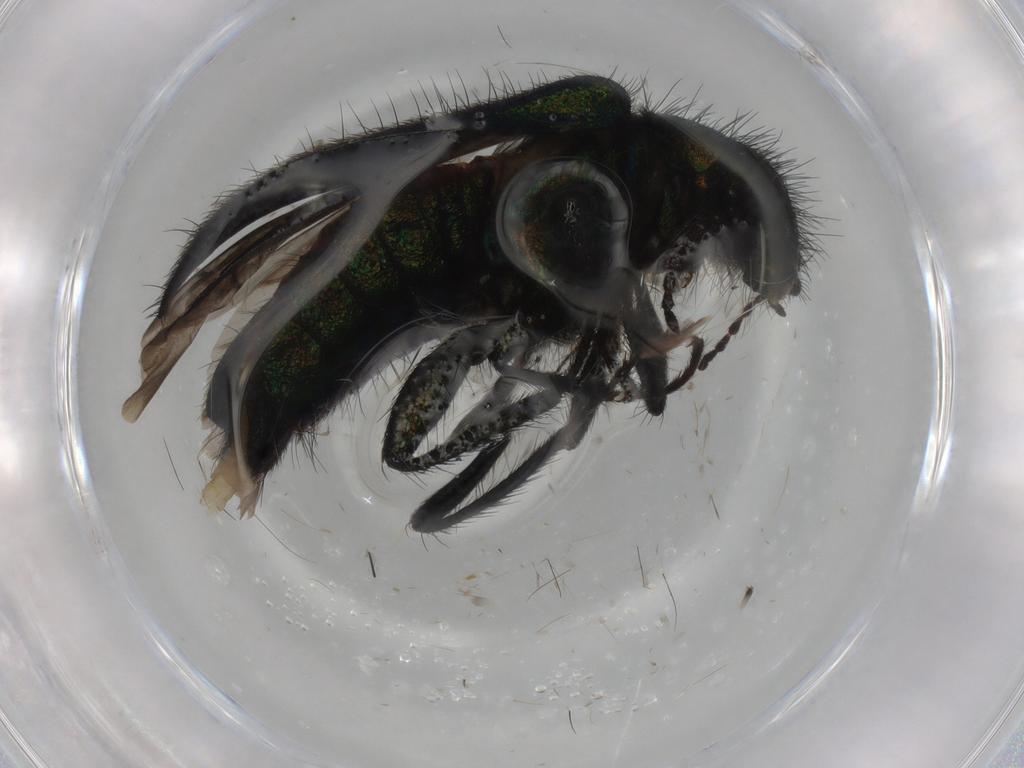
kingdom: Animalia
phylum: Arthropoda
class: Insecta
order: Coleoptera
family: Melyridae
